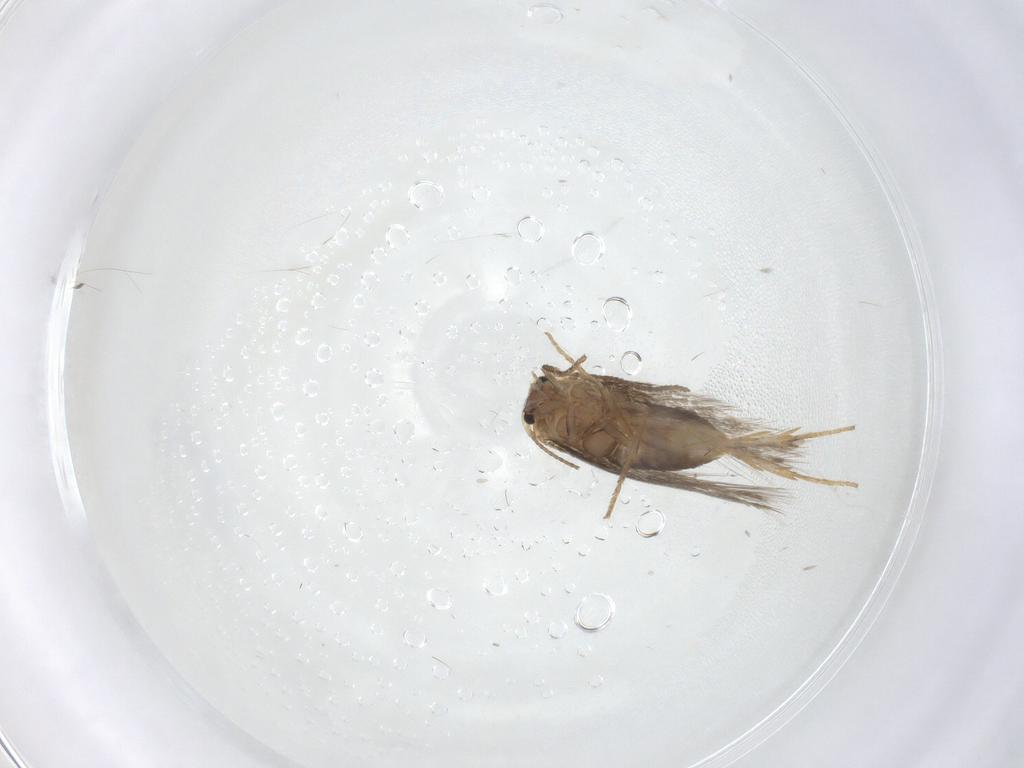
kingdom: Animalia
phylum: Arthropoda
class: Insecta
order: Lepidoptera
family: Nepticulidae
